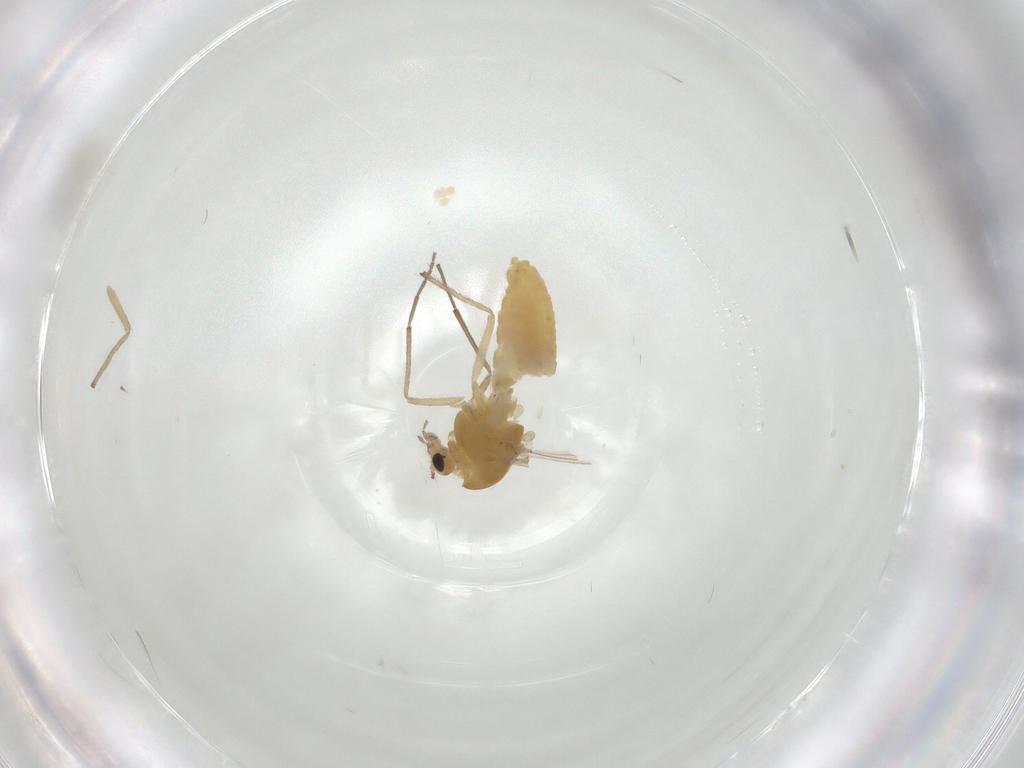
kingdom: Animalia
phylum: Arthropoda
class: Insecta
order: Diptera
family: Chironomidae
